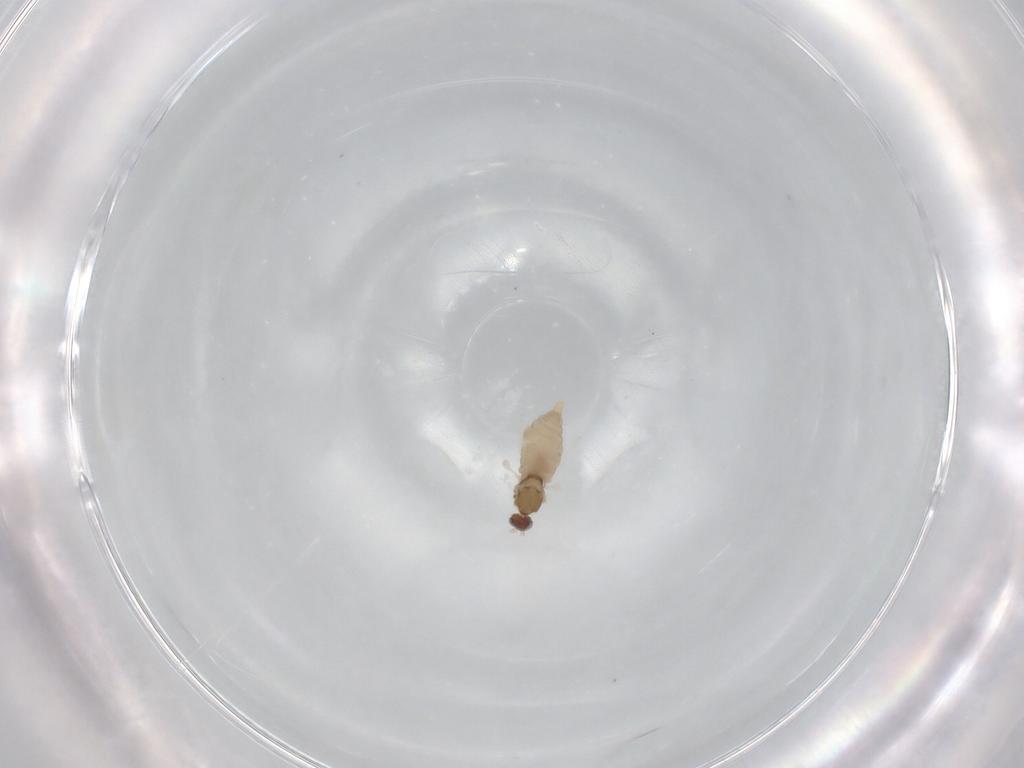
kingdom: Animalia
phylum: Arthropoda
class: Insecta
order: Diptera
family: Cecidomyiidae
